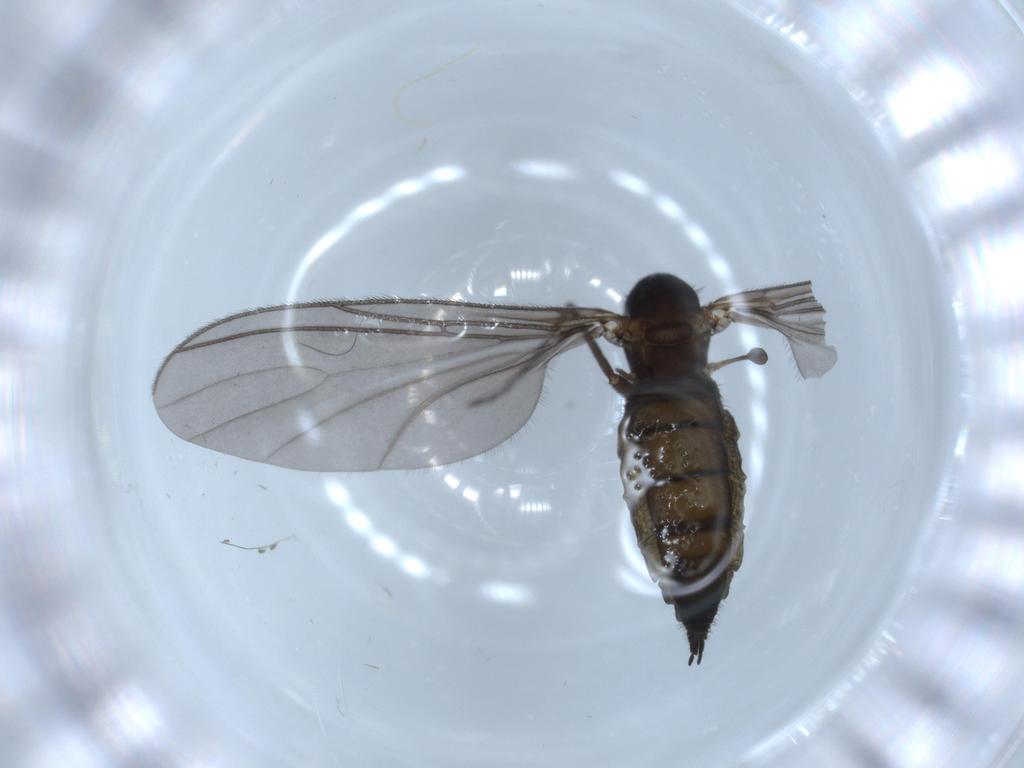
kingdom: Animalia
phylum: Arthropoda
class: Insecta
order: Diptera
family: Sciaridae
